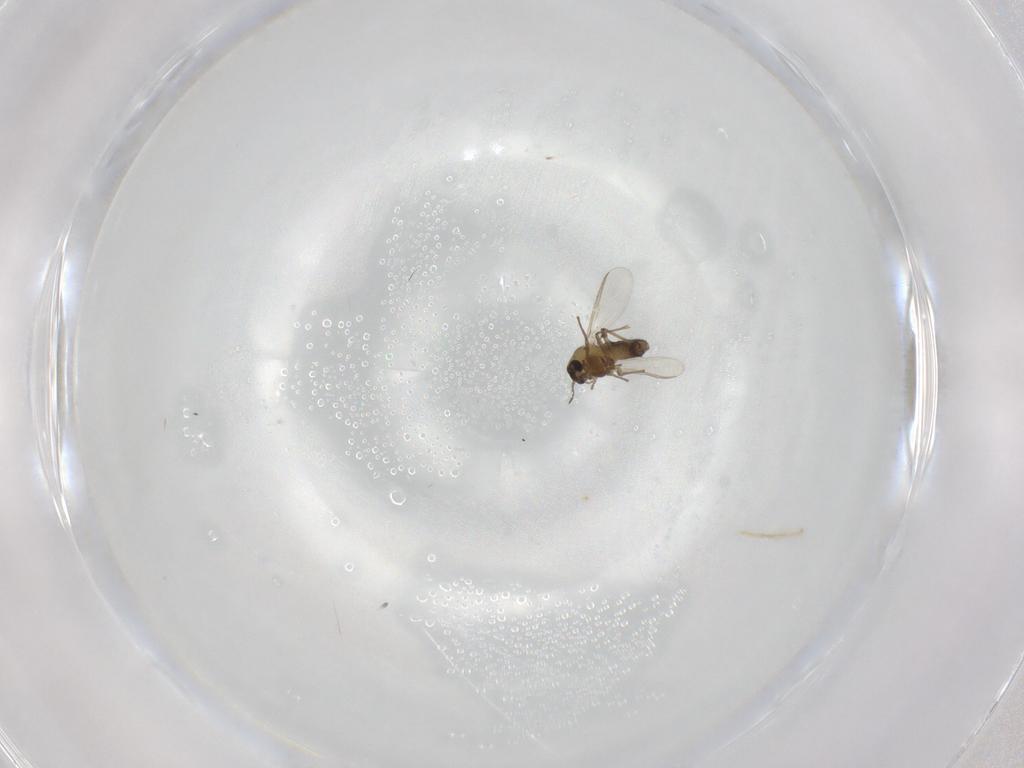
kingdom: Animalia
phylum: Arthropoda
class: Insecta
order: Diptera
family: Chironomidae
